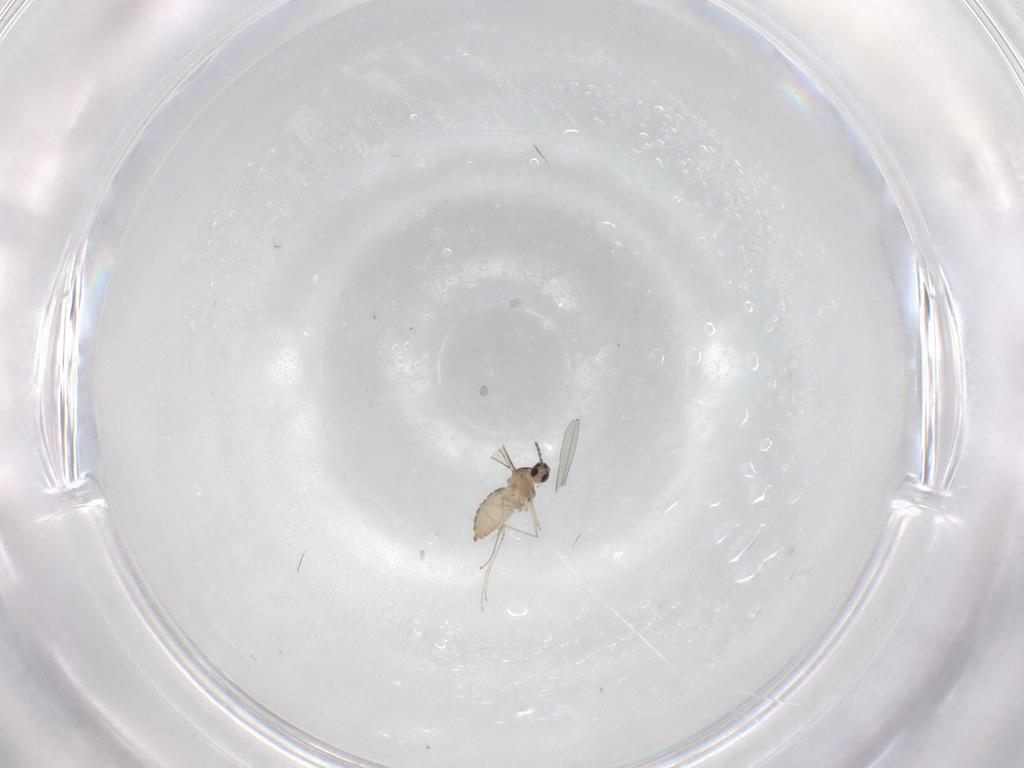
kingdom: Animalia
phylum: Arthropoda
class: Insecta
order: Diptera
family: Cecidomyiidae
